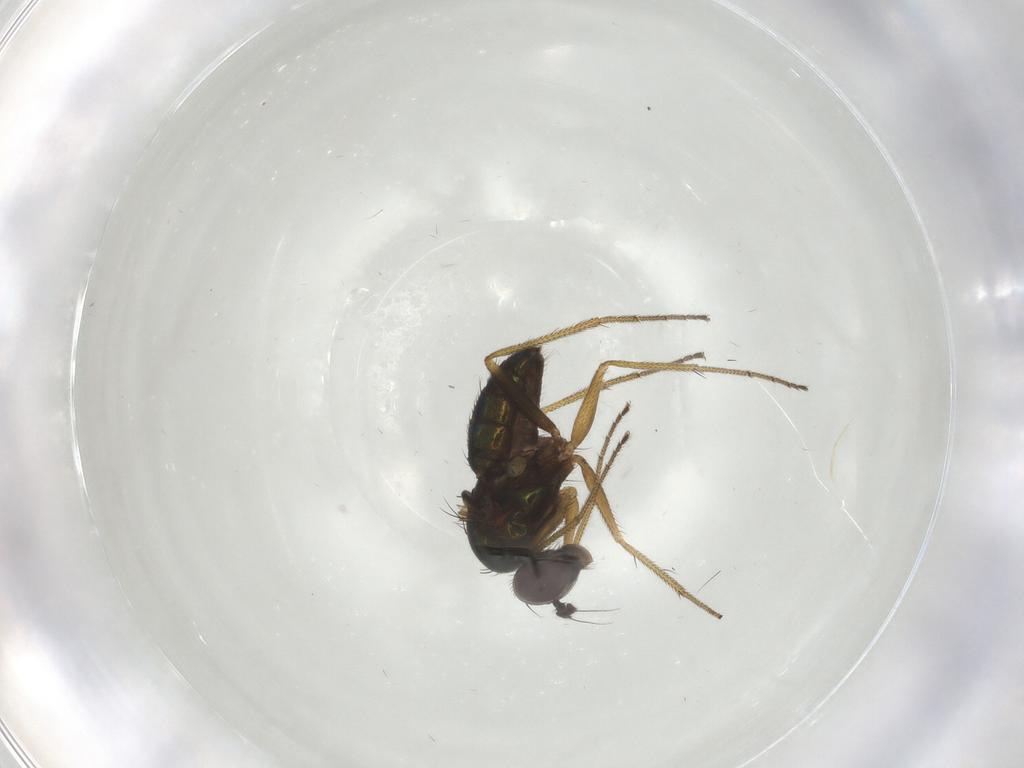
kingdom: Animalia
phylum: Arthropoda
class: Insecta
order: Diptera
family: Dolichopodidae
